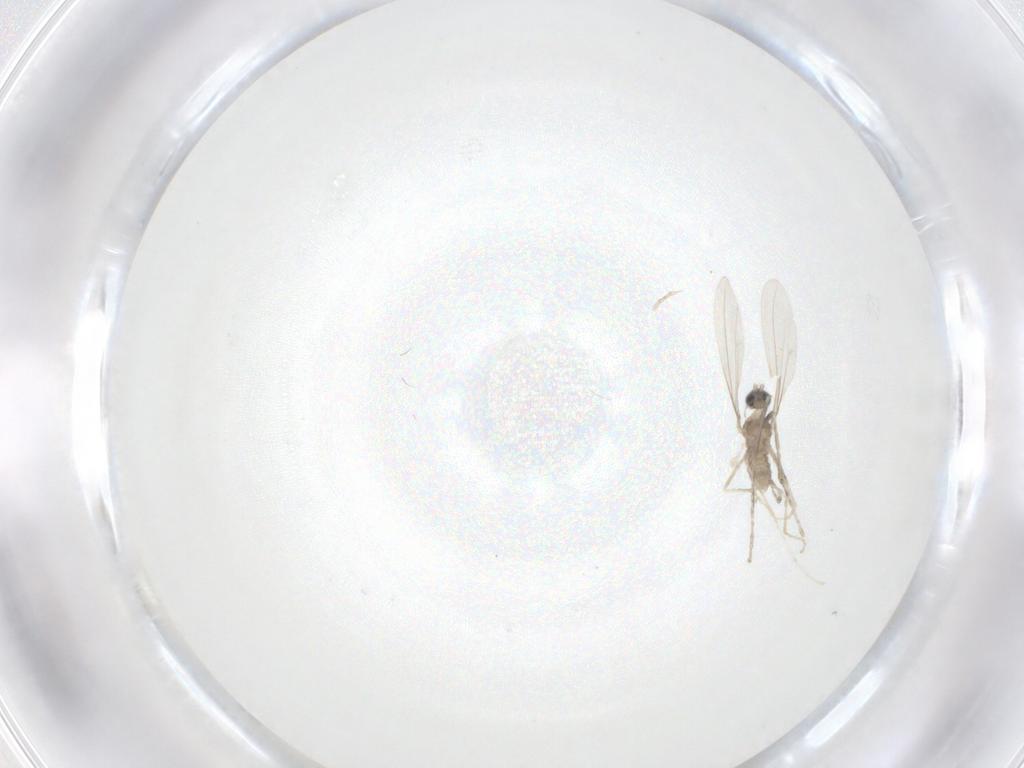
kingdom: Animalia
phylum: Arthropoda
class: Insecta
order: Diptera
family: Cecidomyiidae
